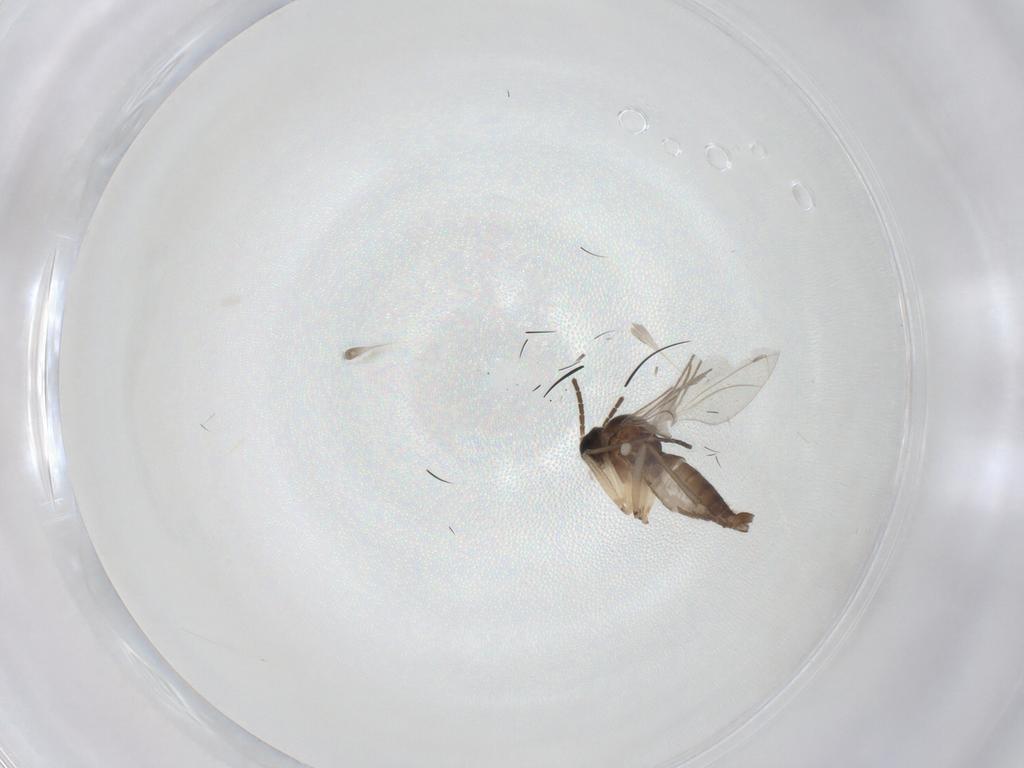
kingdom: Animalia
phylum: Arthropoda
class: Insecta
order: Diptera
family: Sciaridae
